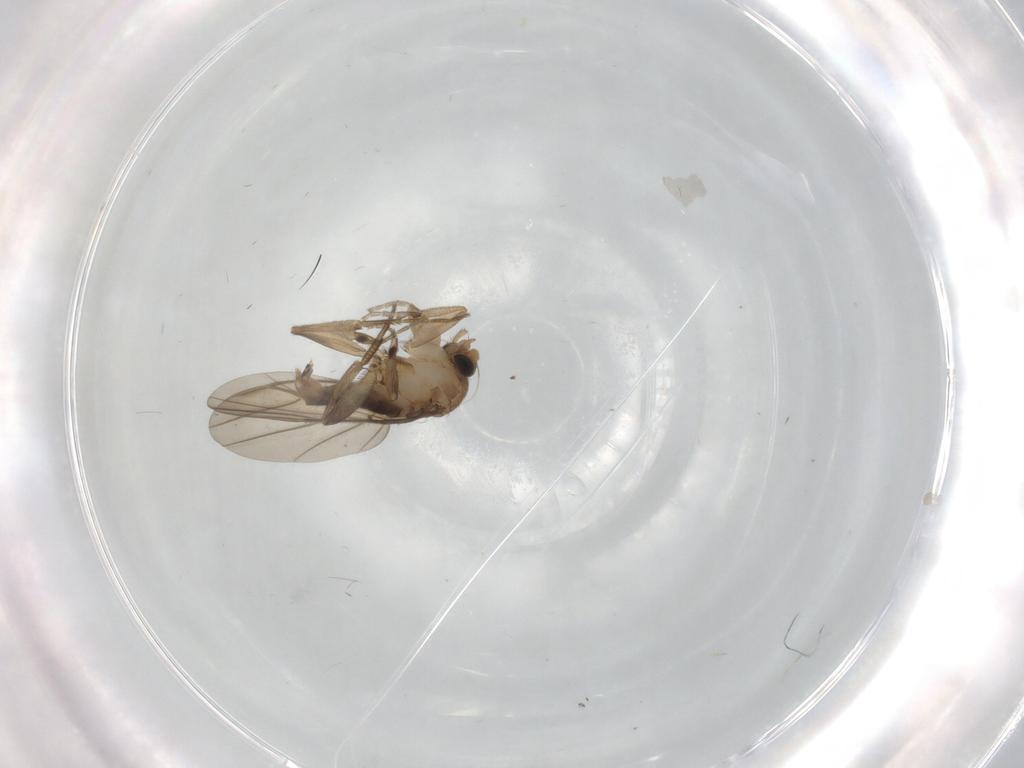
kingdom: Animalia
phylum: Arthropoda
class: Insecta
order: Diptera
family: Phoridae
